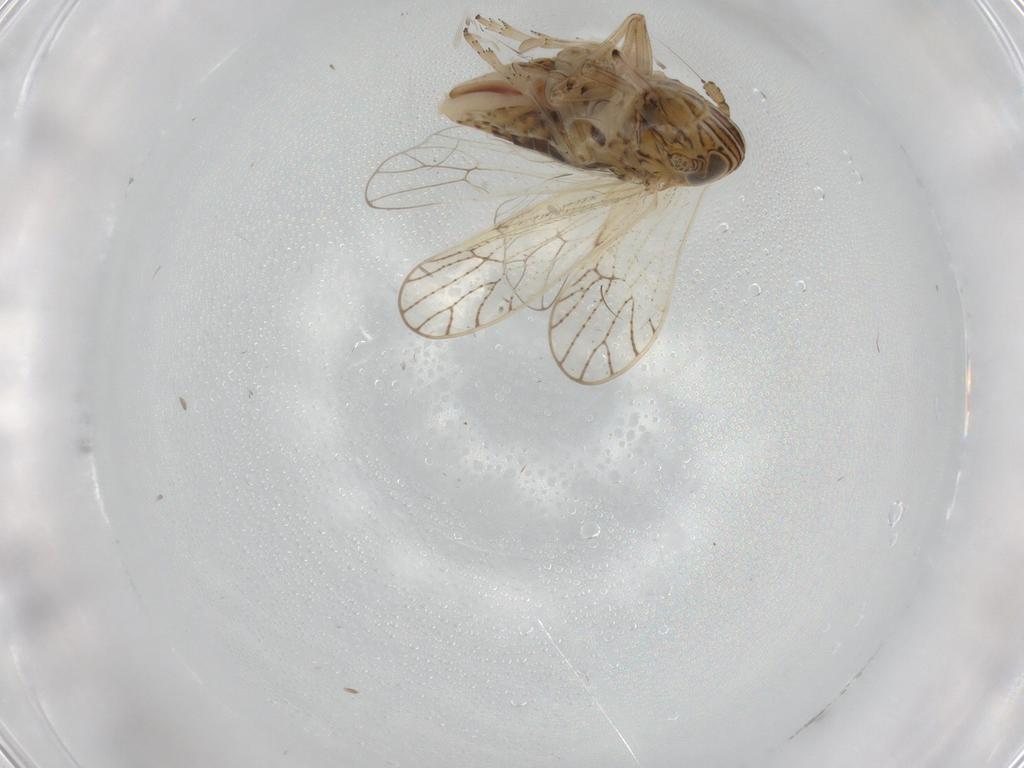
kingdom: Animalia
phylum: Arthropoda
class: Insecta
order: Hemiptera
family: Delphacidae
